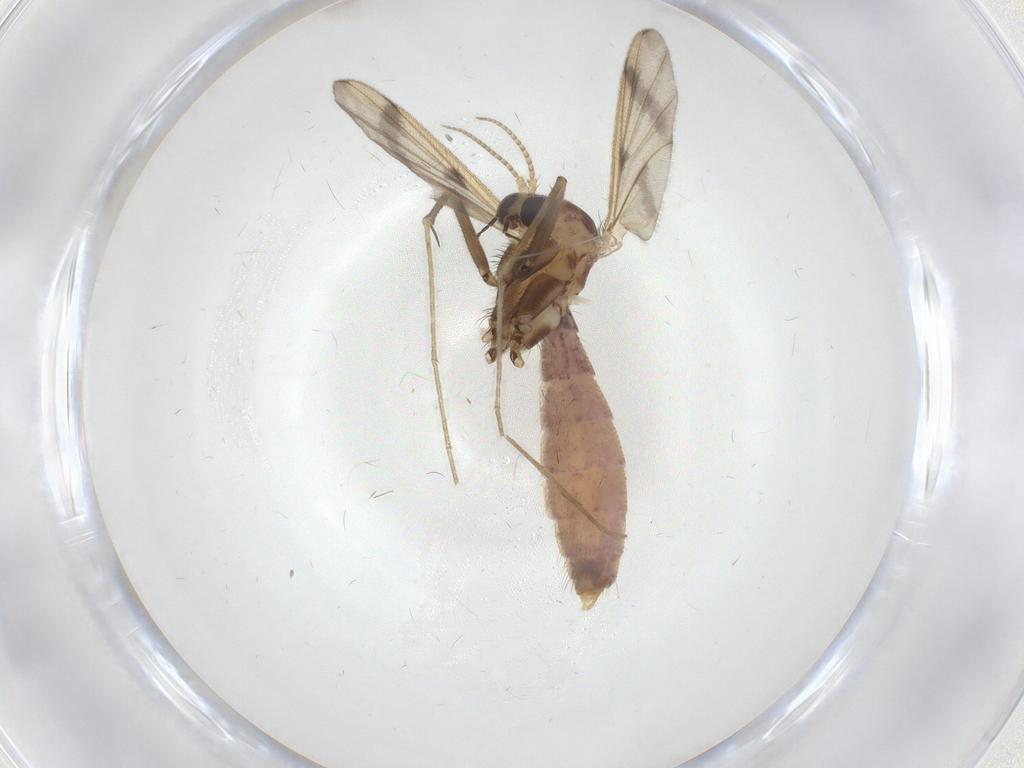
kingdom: Animalia
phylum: Arthropoda
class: Insecta
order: Diptera
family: Mycetophilidae
